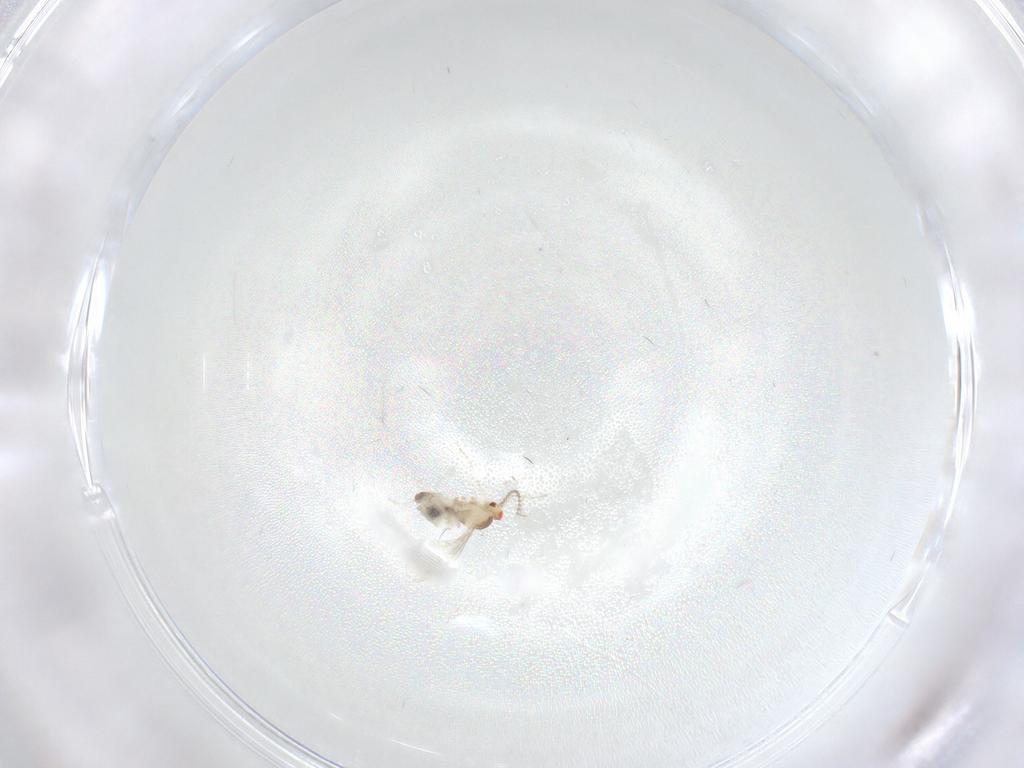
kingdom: Animalia
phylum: Arthropoda
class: Insecta
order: Diptera
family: Cecidomyiidae
